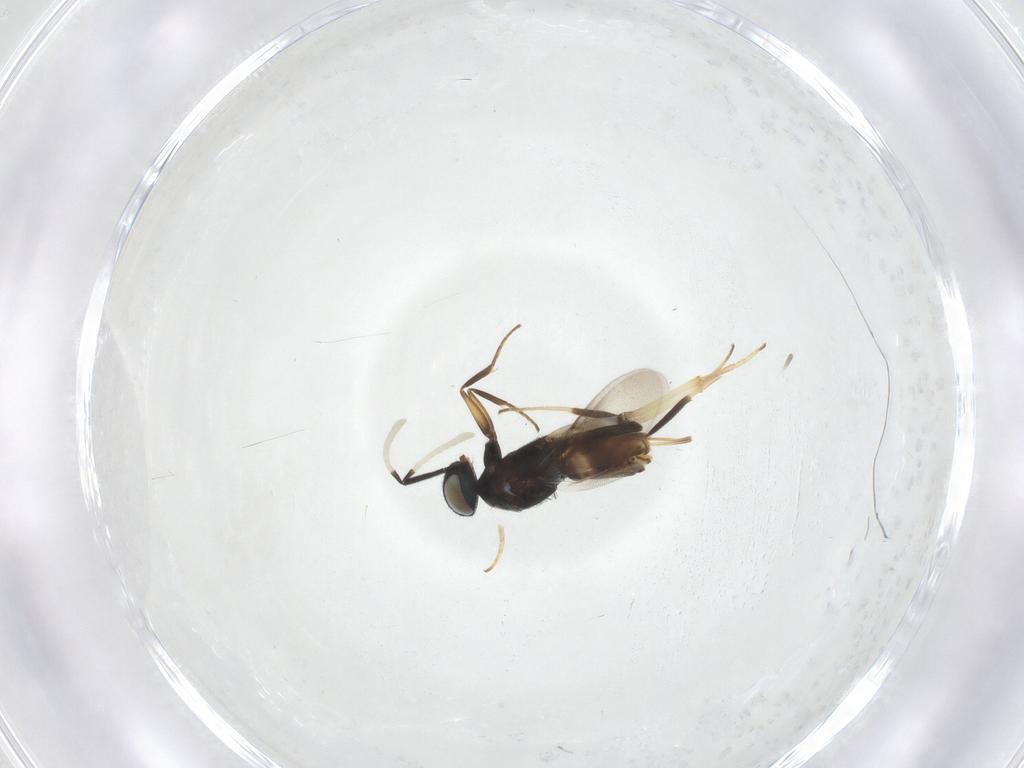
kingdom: Animalia
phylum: Arthropoda
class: Insecta
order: Hymenoptera
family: Encyrtidae
